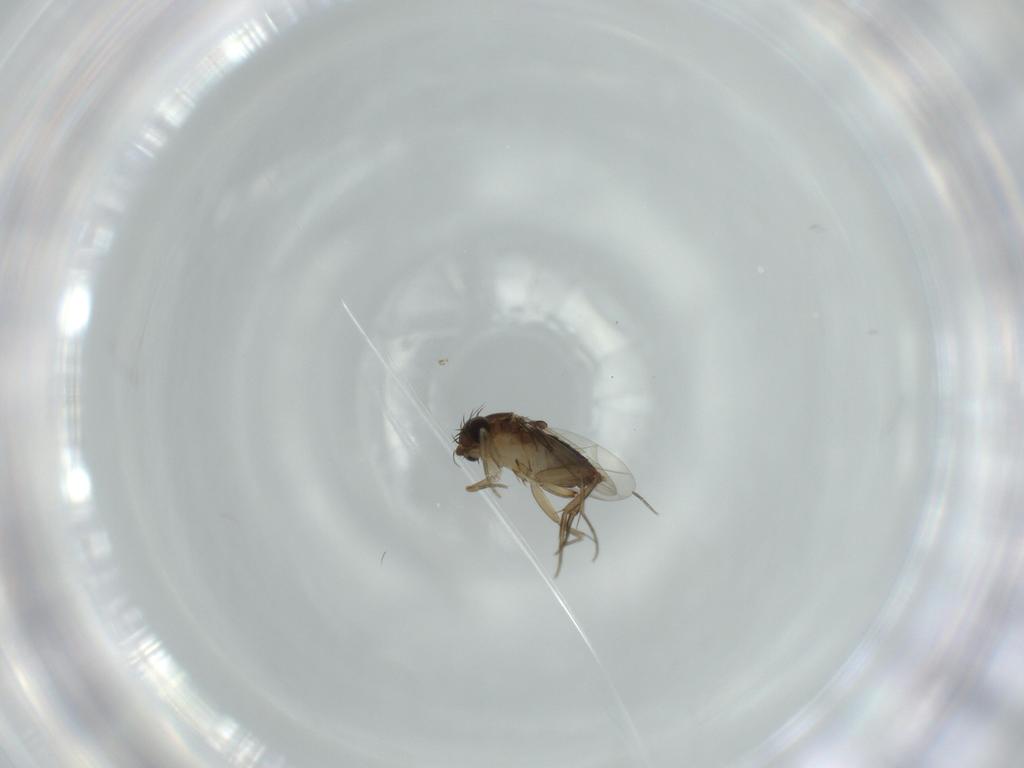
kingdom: Animalia
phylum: Arthropoda
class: Insecta
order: Diptera
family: Phoridae
